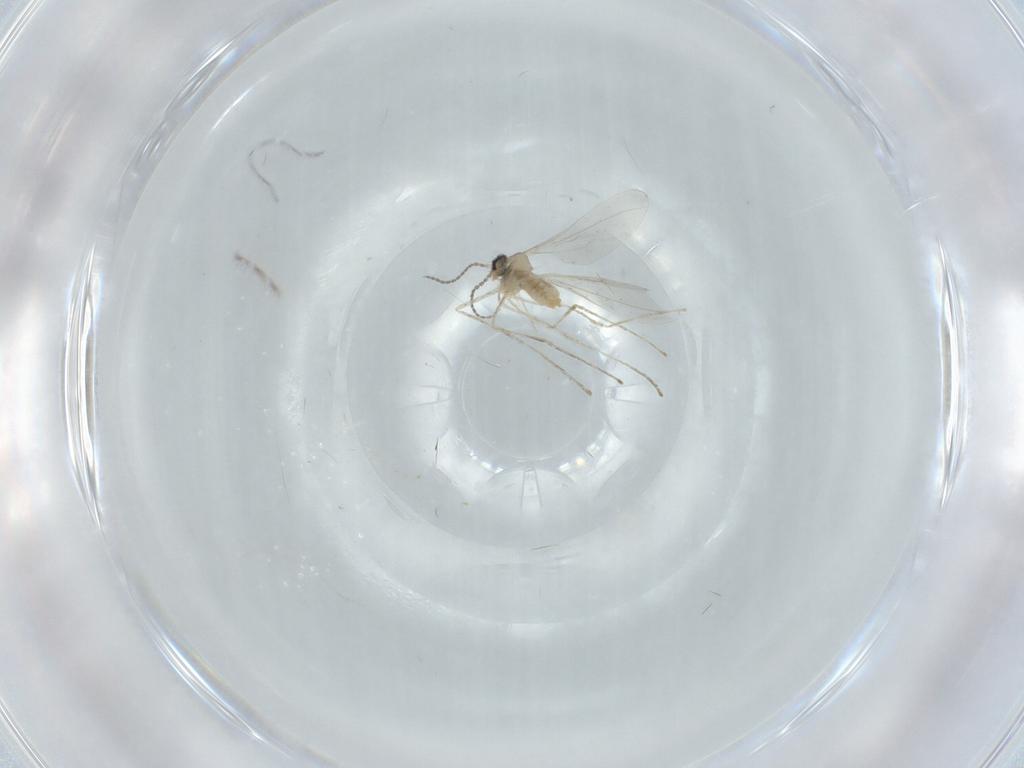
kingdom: Animalia
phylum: Arthropoda
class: Insecta
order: Diptera
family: Cecidomyiidae
